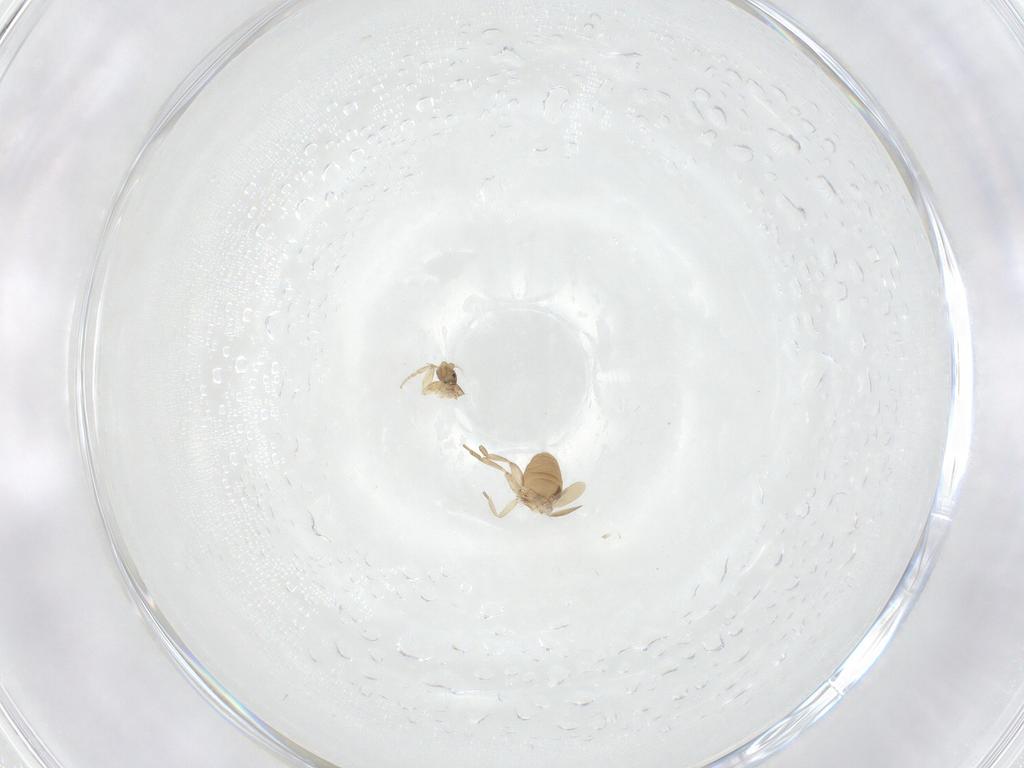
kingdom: Animalia
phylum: Arthropoda
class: Insecta
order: Diptera
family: Phoridae
